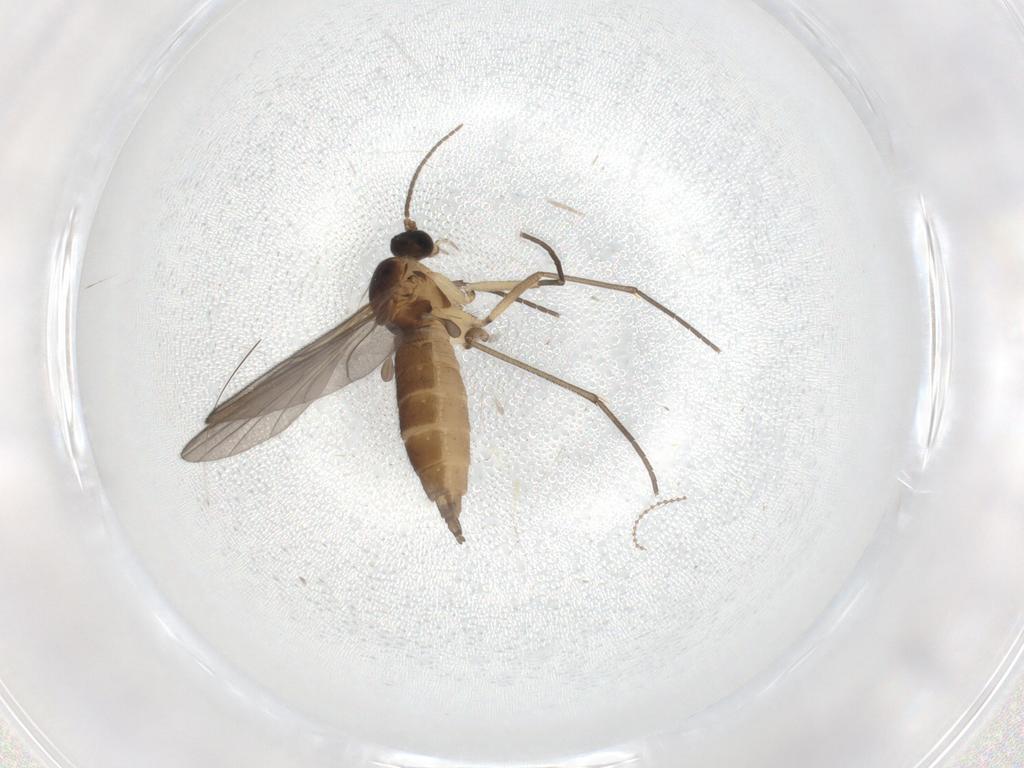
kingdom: Animalia
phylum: Arthropoda
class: Insecta
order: Diptera
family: Sciaridae
